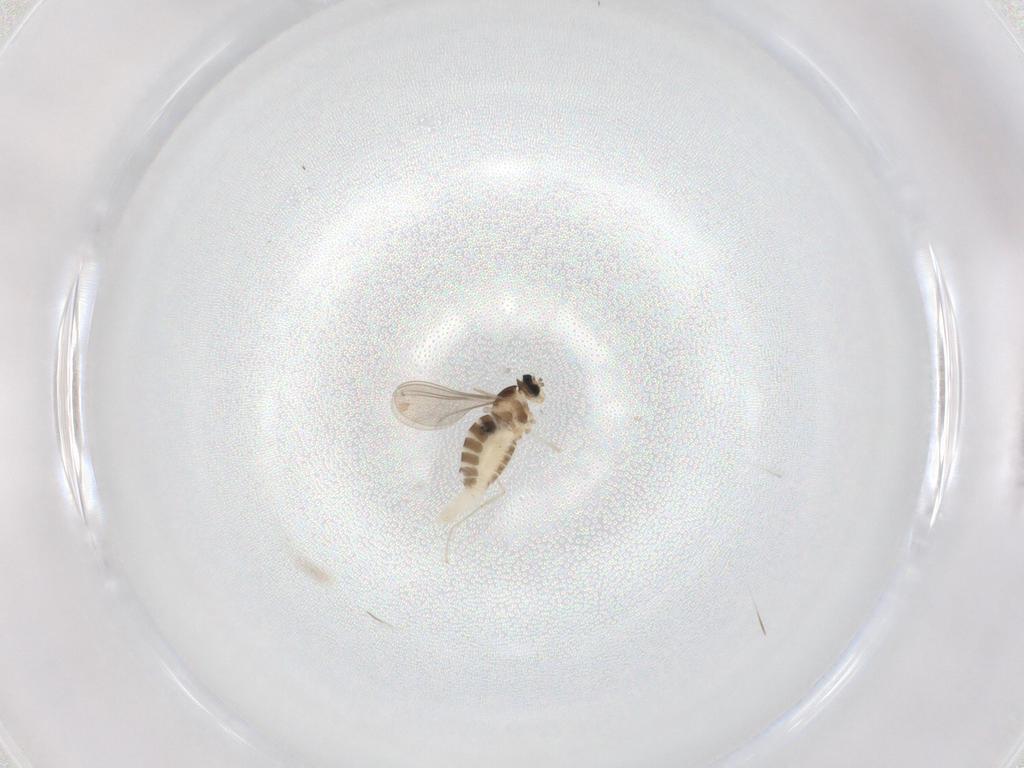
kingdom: Animalia
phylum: Arthropoda
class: Insecta
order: Diptera
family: Cecidomyiidae
